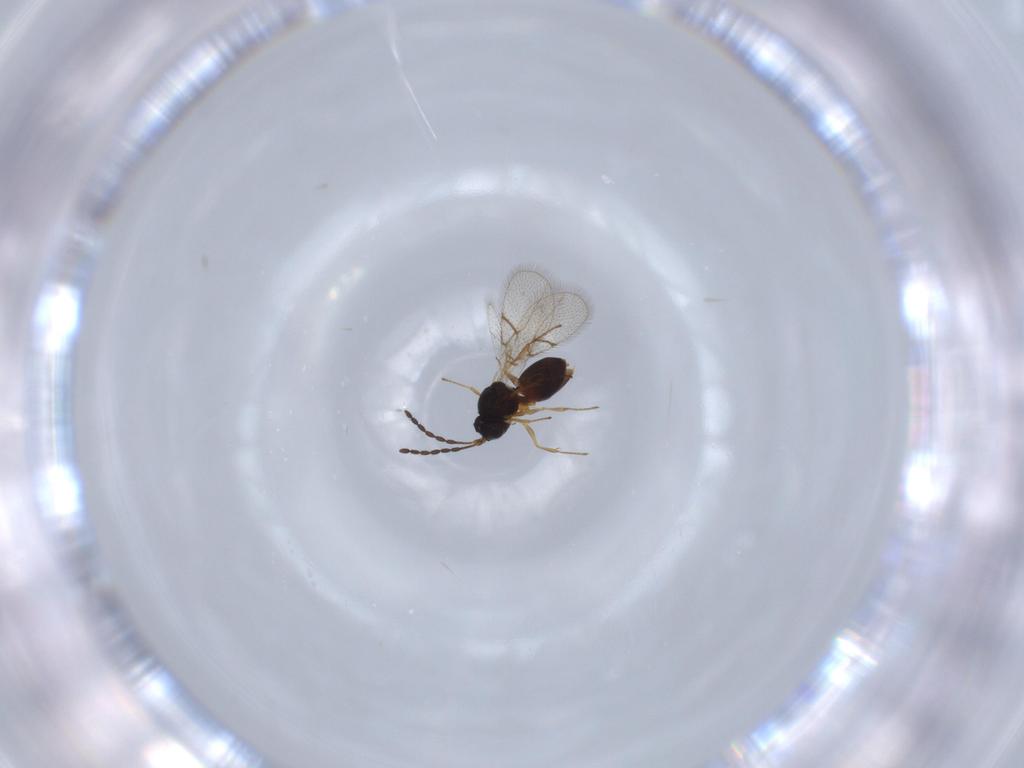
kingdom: Animalia
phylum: Arthropoda
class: Insecta
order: Hymenoptera
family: Figitidae
